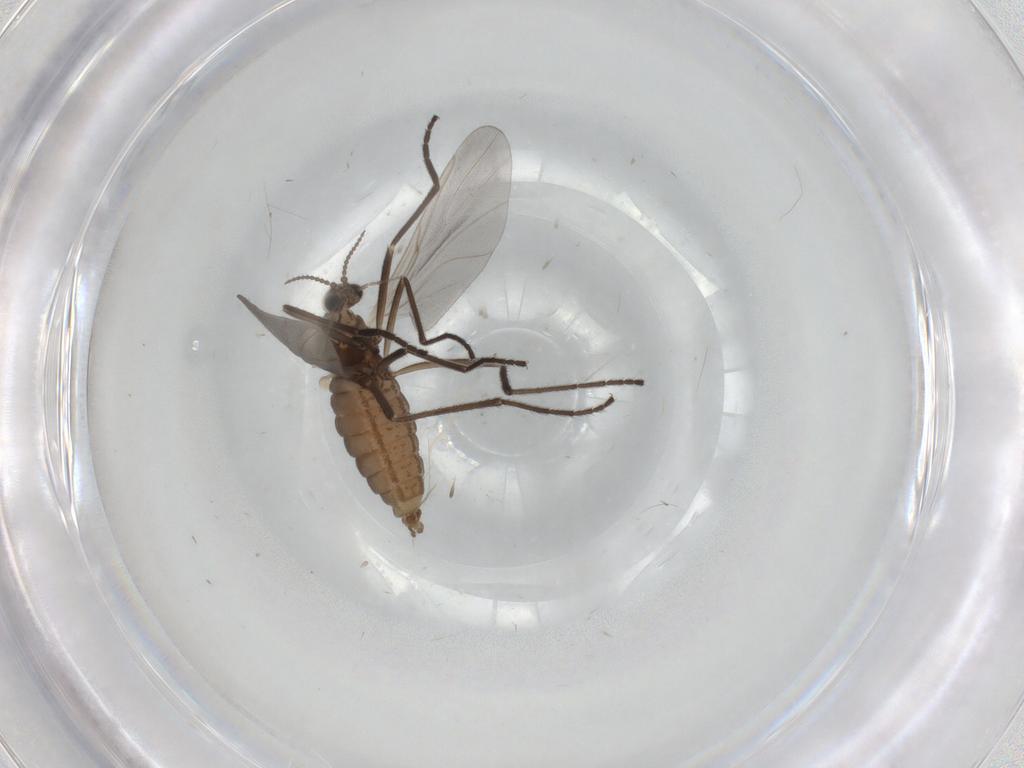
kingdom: Animalia
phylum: Arthropoda
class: Insecta
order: Diptera
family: Cecidomyiidae
